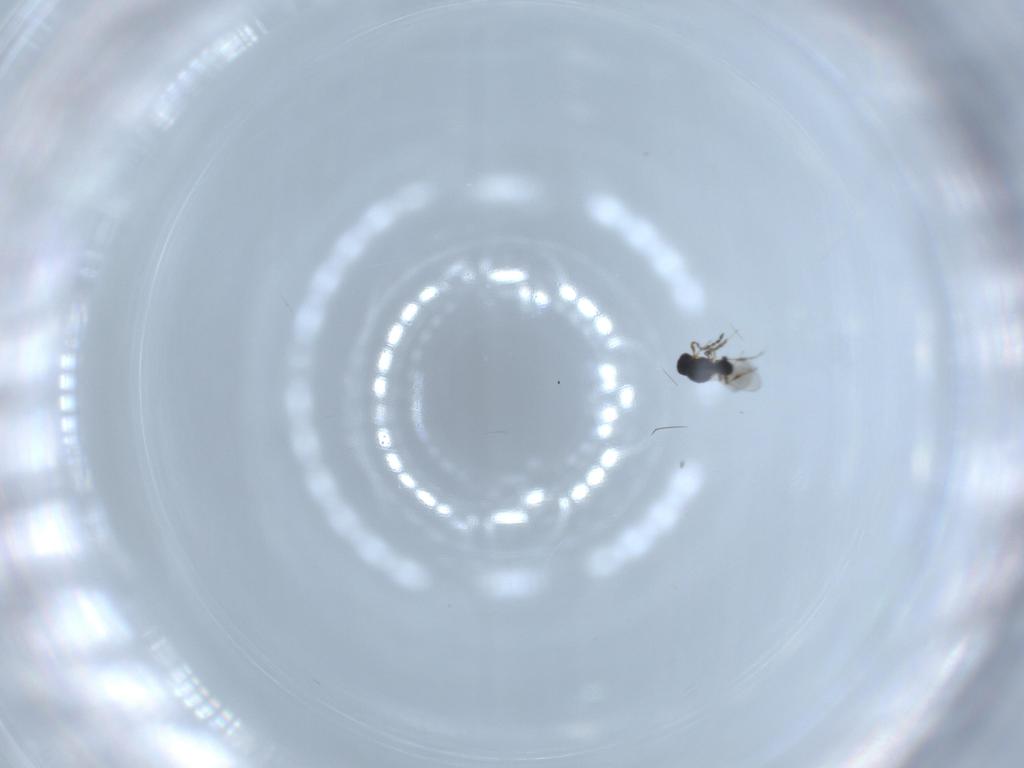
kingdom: Animalia
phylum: Arthropoda
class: Insecta
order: Hymenoptera
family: Platygastridae
